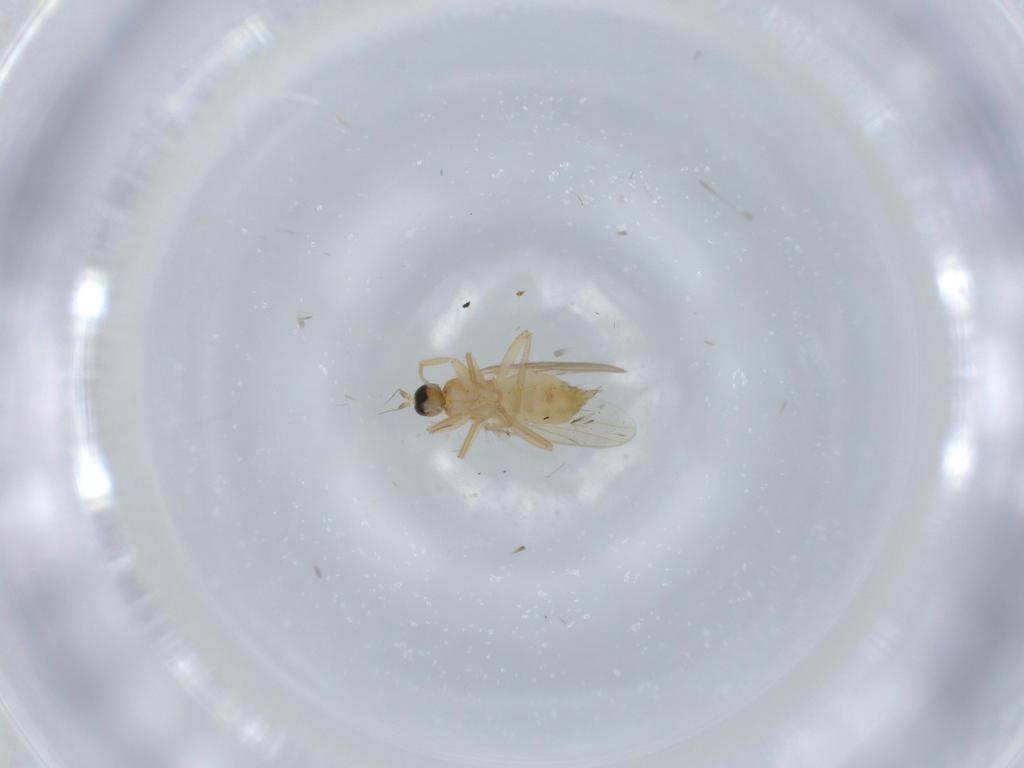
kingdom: Animalia
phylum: Arthropoda
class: Insecta
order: Diptera
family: Hybotidae
